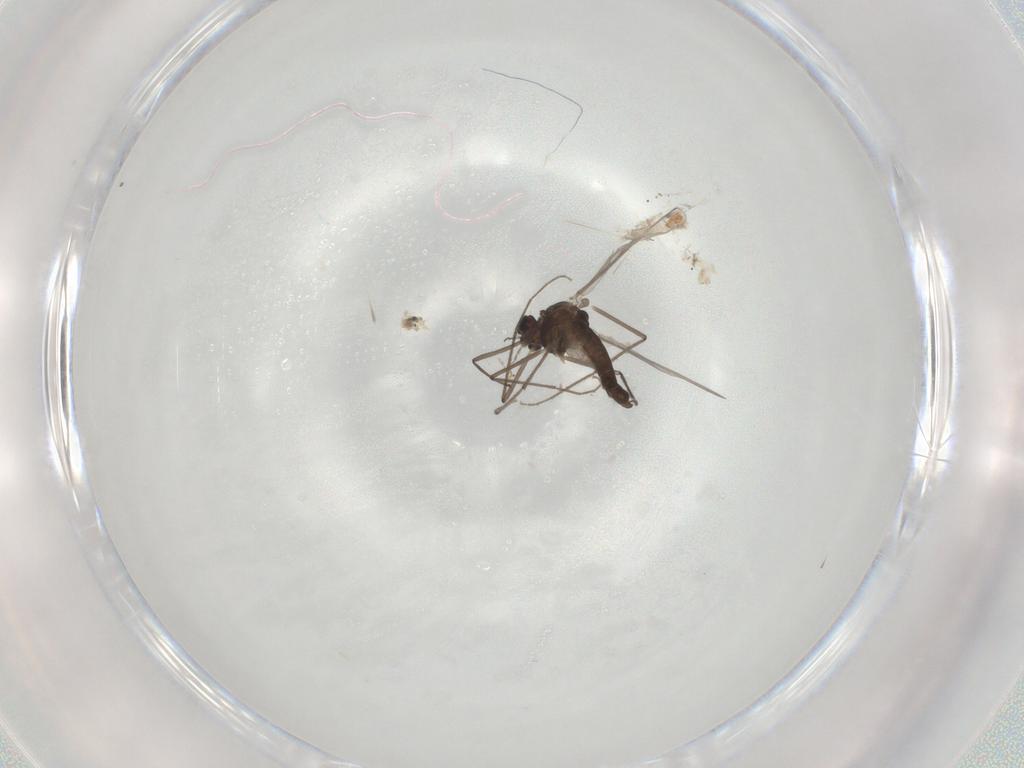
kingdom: Animalia
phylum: Arthropoda
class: Insecta
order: Diptera
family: Chironomidae
